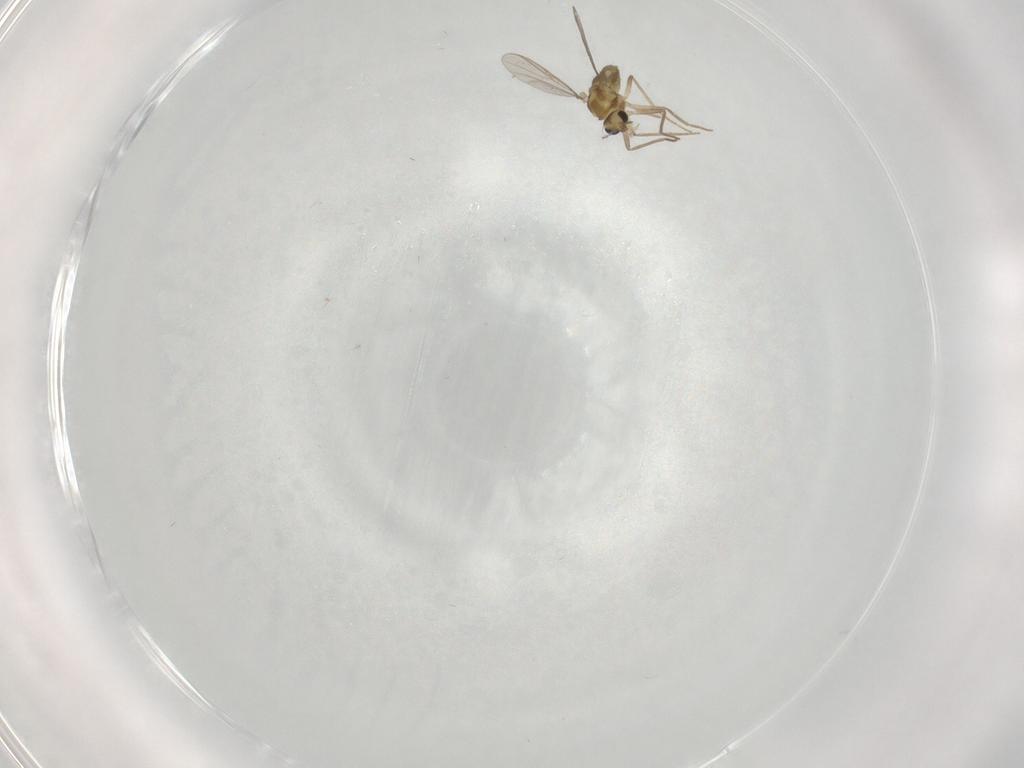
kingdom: Animalia
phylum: Arthropoda
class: Insecta
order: Diptera
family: Chironomidae
